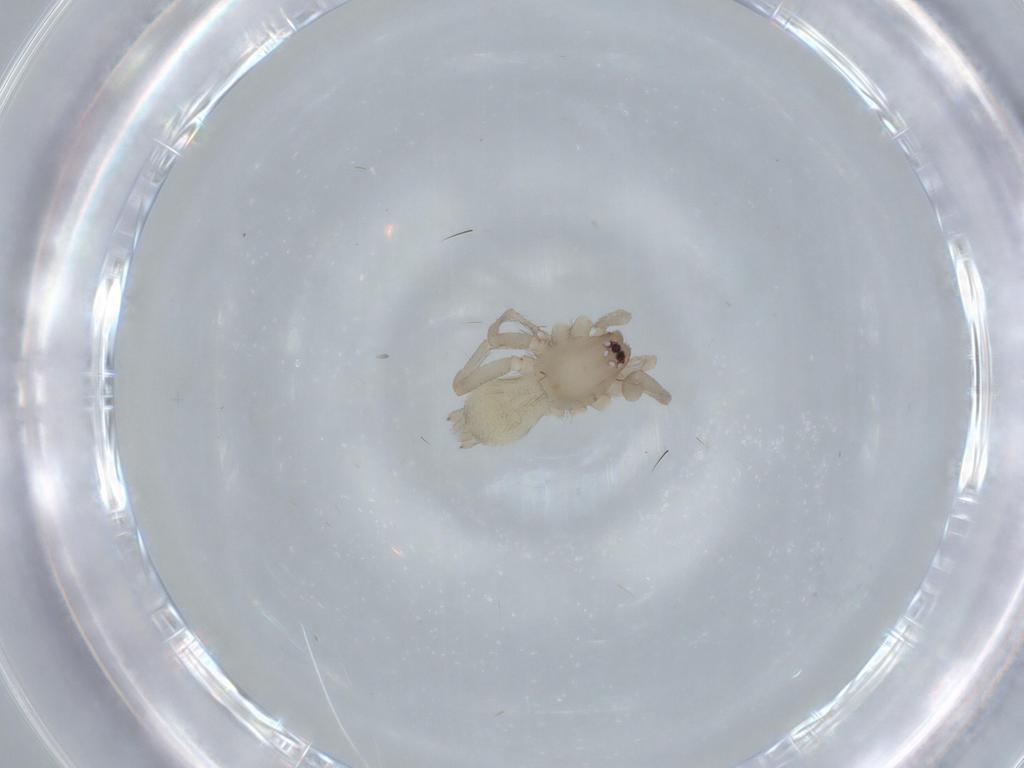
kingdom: Animalia
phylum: Arthropoda
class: Arachnida
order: Araneae
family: Gnaphosidae
